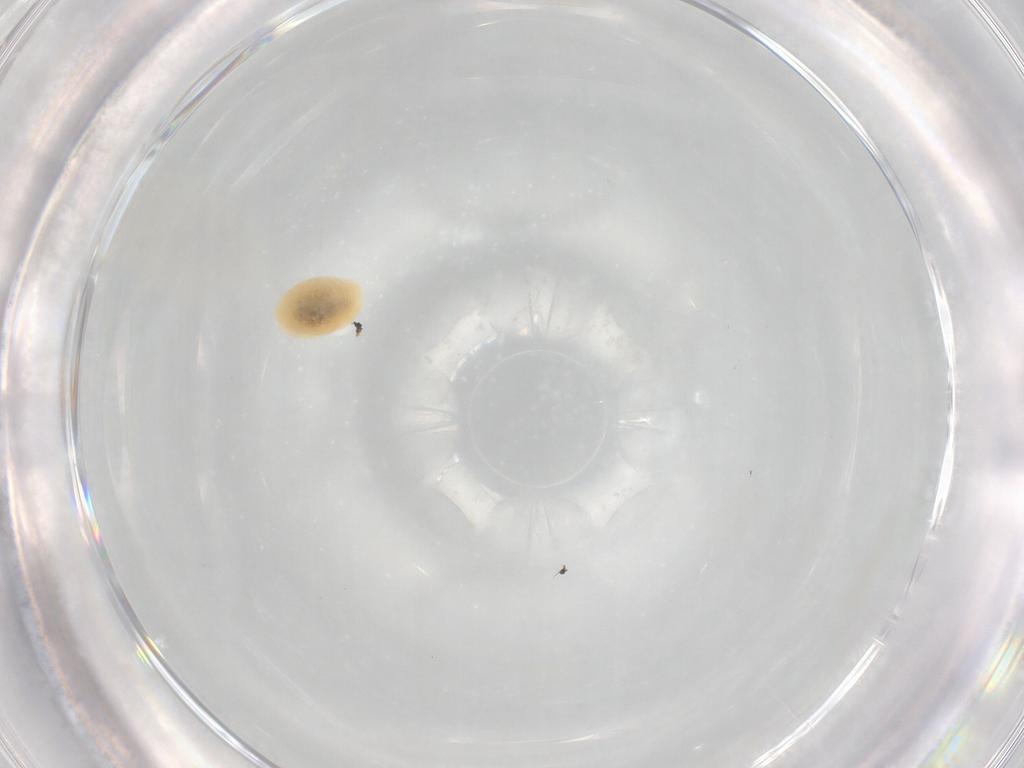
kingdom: Animalia
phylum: Arthropoda
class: Insecta
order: Hymenoptera
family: Eulophidae
